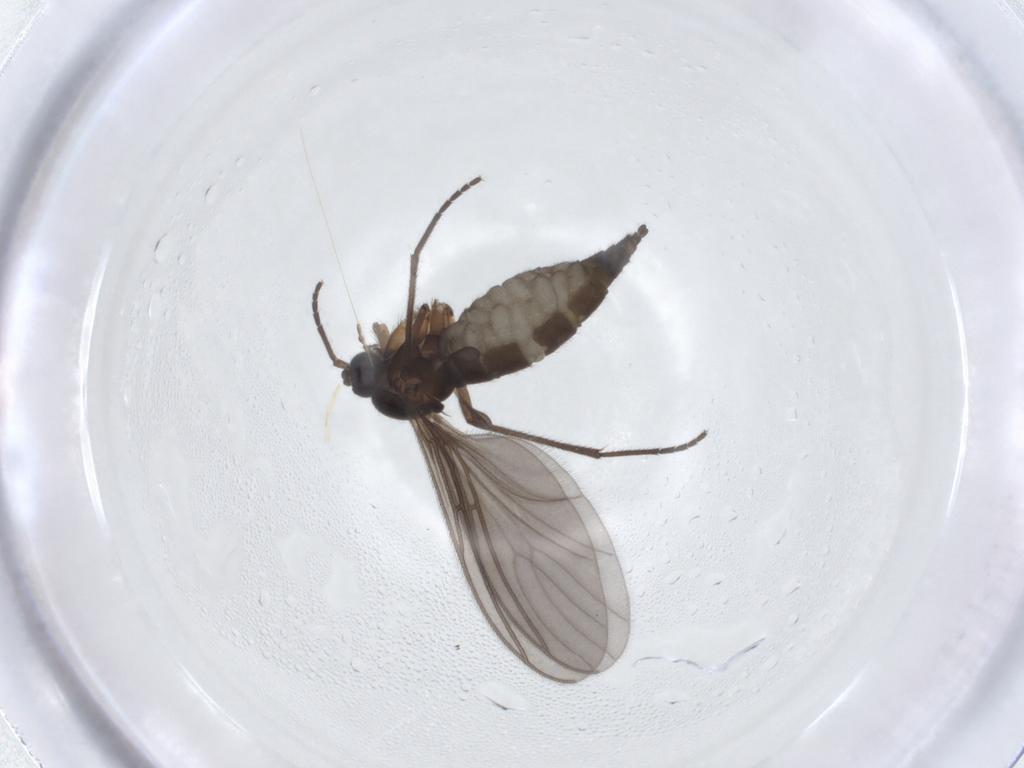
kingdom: Animalia
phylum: Arthropoda
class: Insecta
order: Diptera
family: Sciaridae
